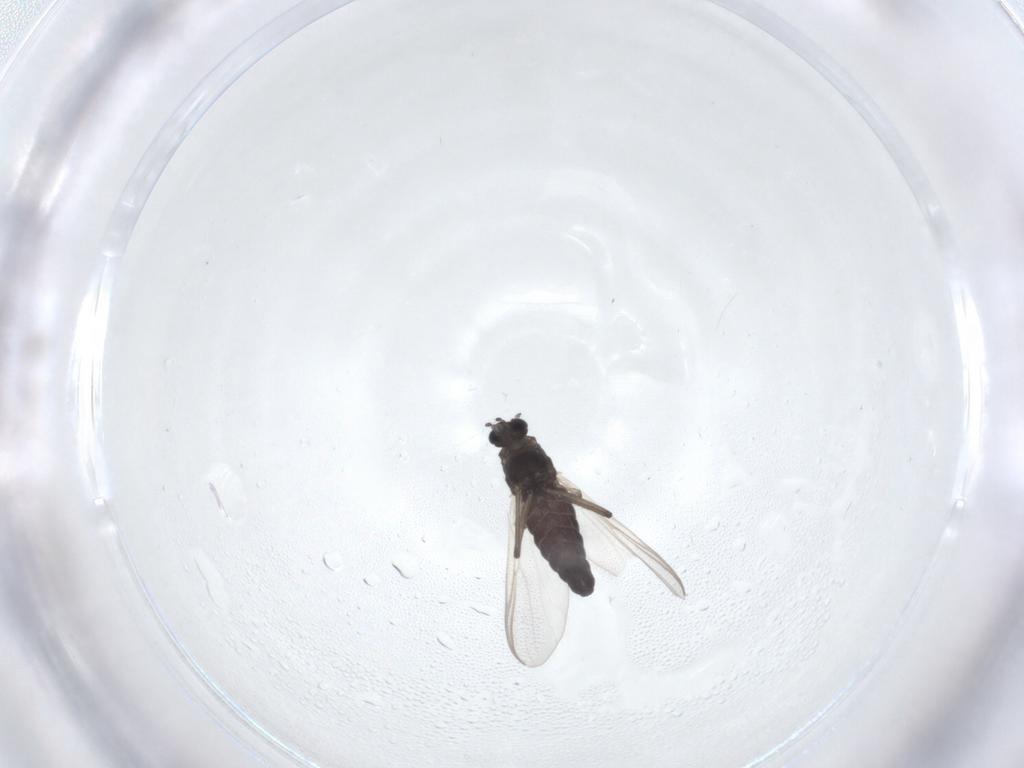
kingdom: Animalia
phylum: Arthropoda
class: Insecta
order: Diptera
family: Chironomidae
